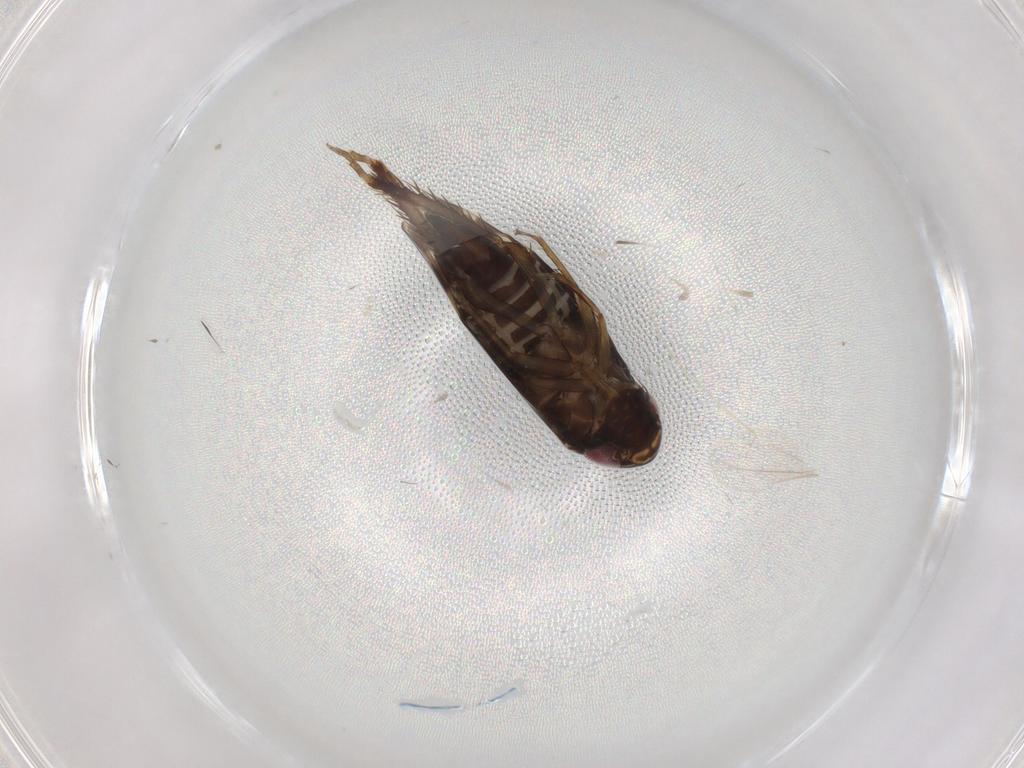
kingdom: Animalia
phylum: Arthropoda
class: Insecta
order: Hemiptera
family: Cicadellidae
